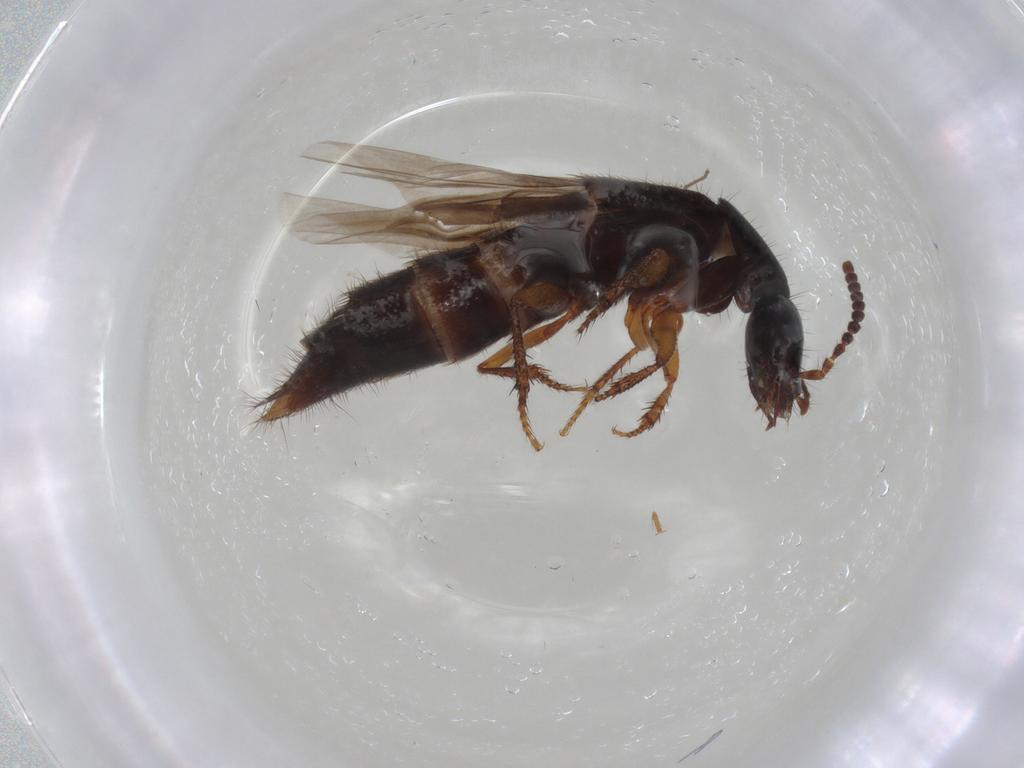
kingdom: Animalia
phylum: Arthropoda
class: Insecta
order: Coleoptera
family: Staphylinidae
